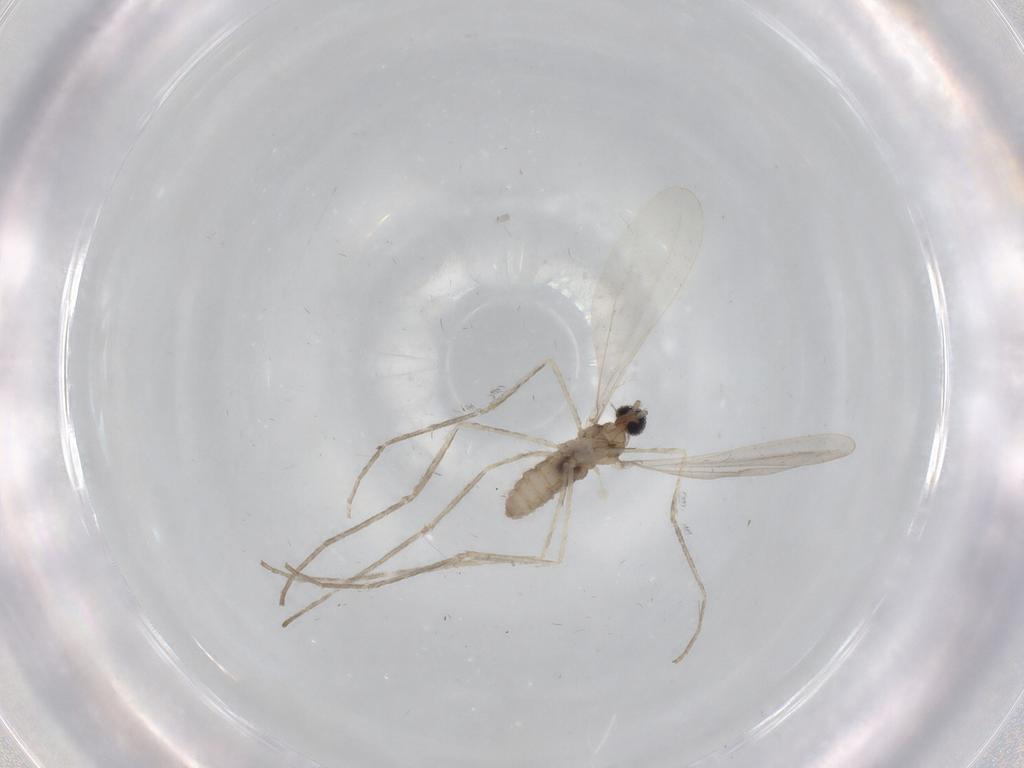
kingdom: Animalia
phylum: Arthropoda
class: Insecta
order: Diptera
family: Cecidomyiidae
